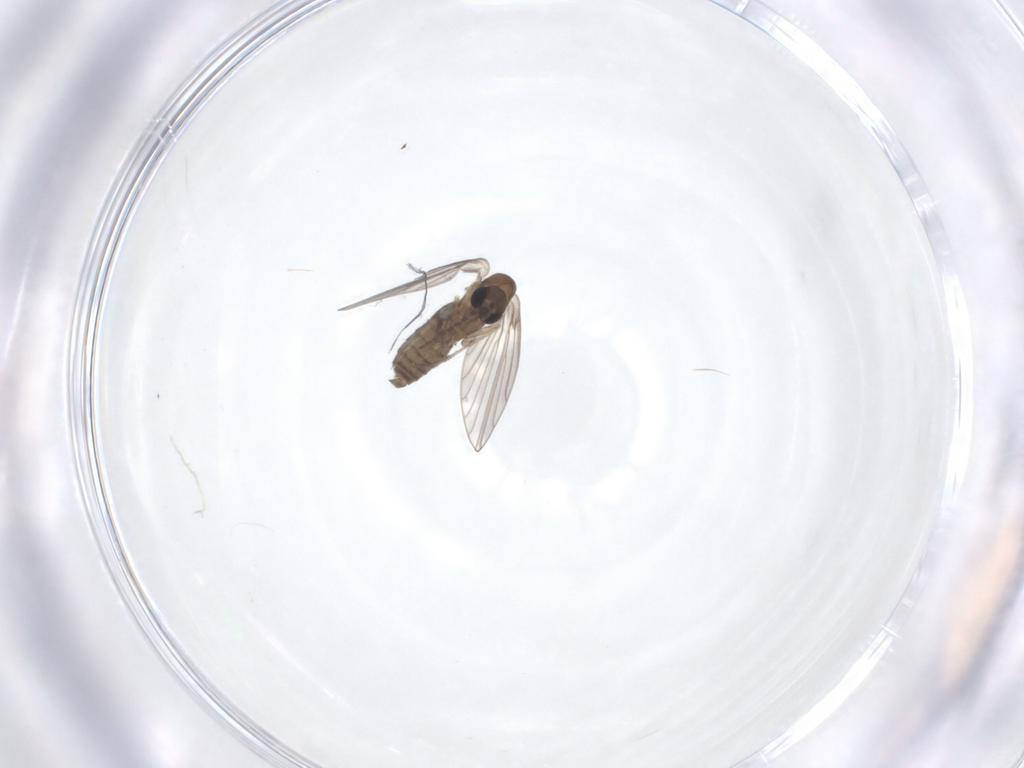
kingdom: Animalia
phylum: Arthropoda
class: Insecta
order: Diptera
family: Psychodidae
